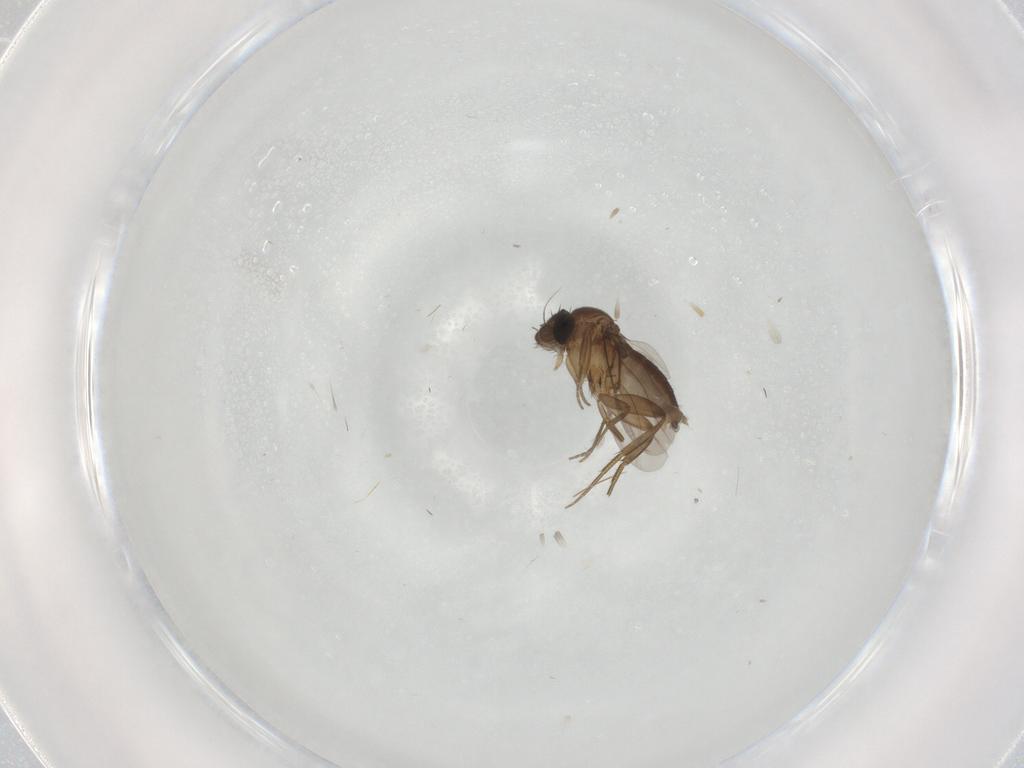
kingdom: Animalia
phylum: Arthropoda
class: Insecta
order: Diptera
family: Phoridae
